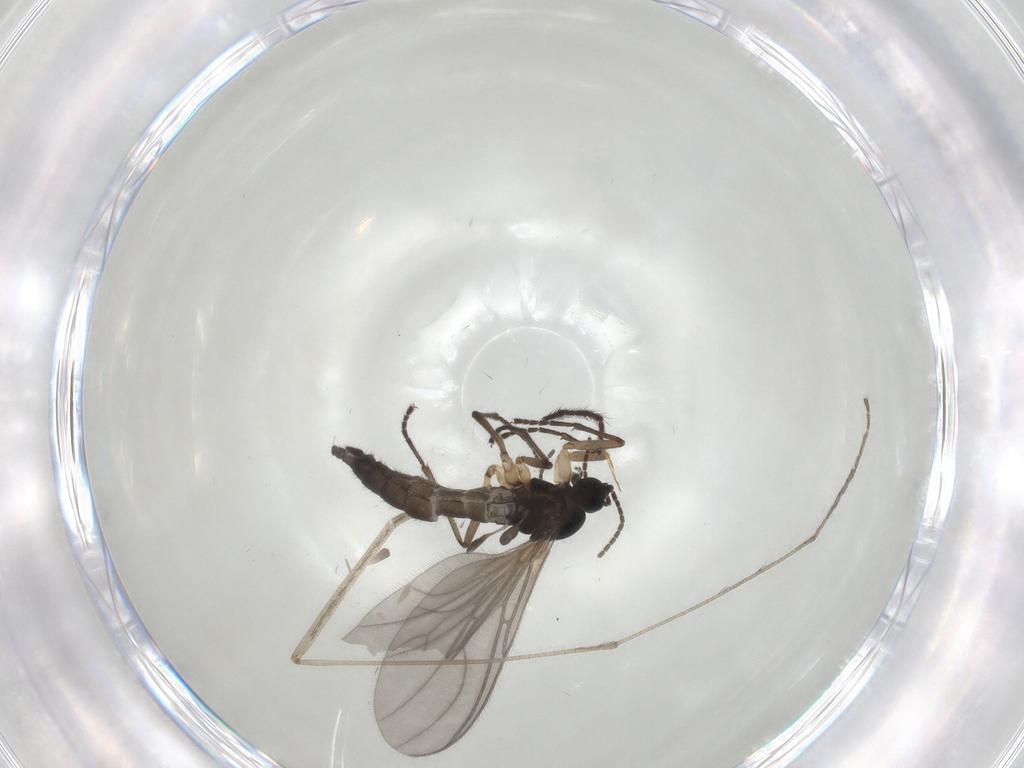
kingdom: Animalia
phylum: Arthropoda
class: Insecta
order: Diptera
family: Sciaridae
